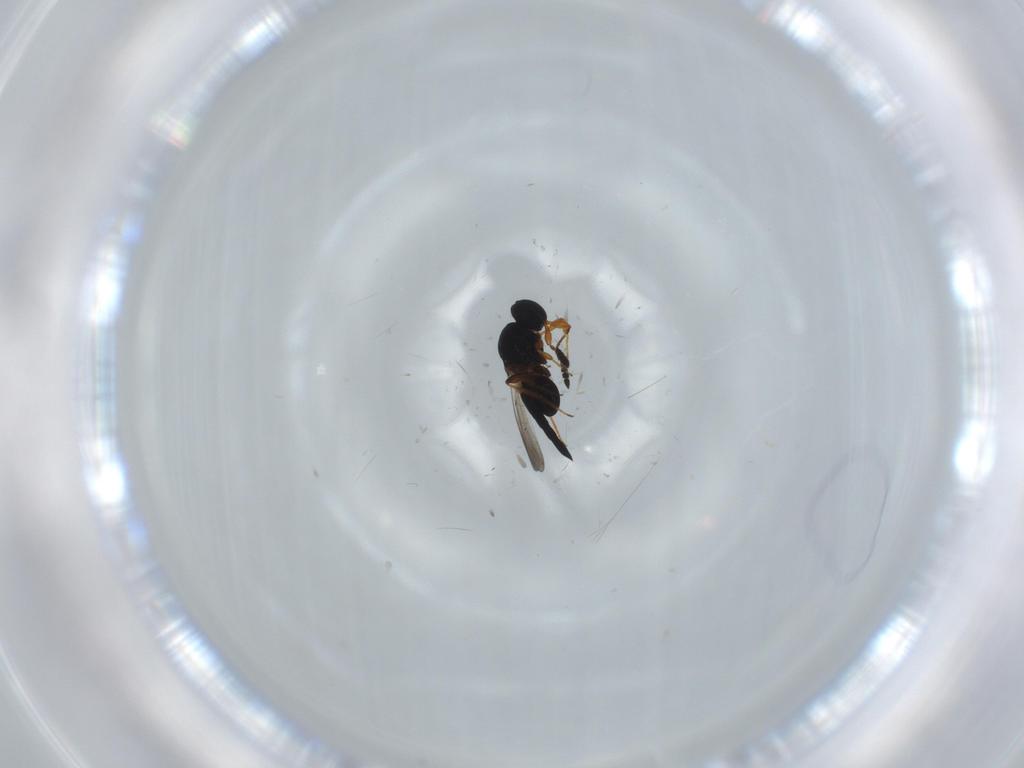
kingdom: Animalia
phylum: Arthropoda
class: Insecta
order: Hymenoptera
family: Platygastridae
